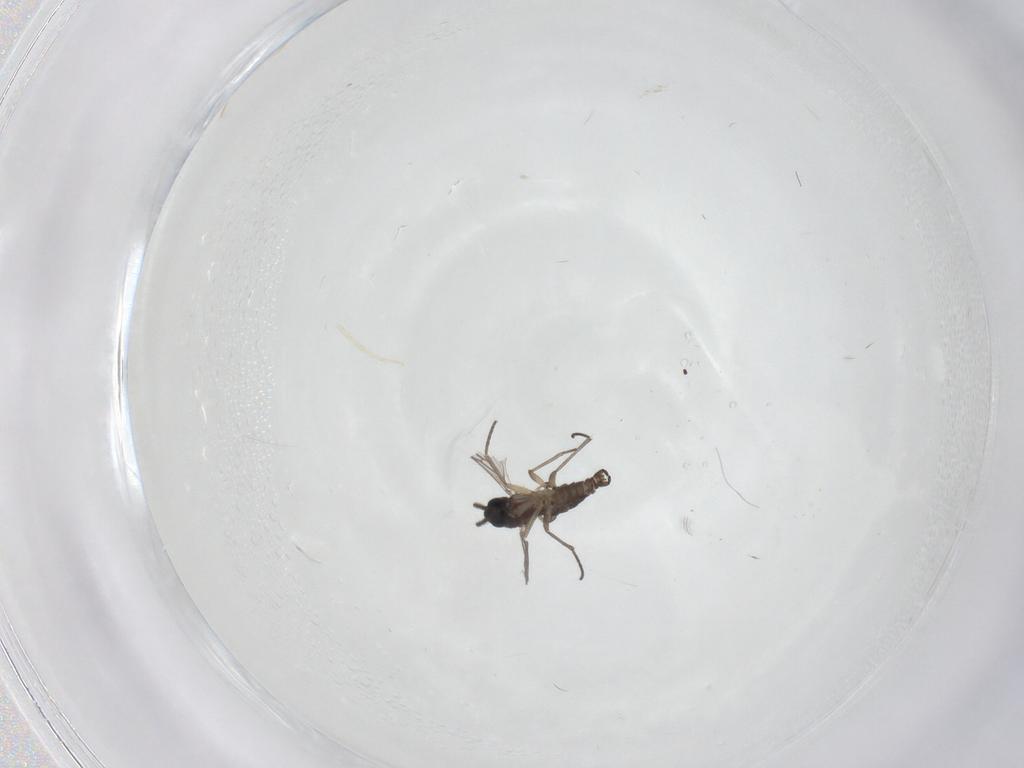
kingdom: Animalia
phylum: Arthropoda
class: Insecta
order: Diptera
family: Sciaridae
